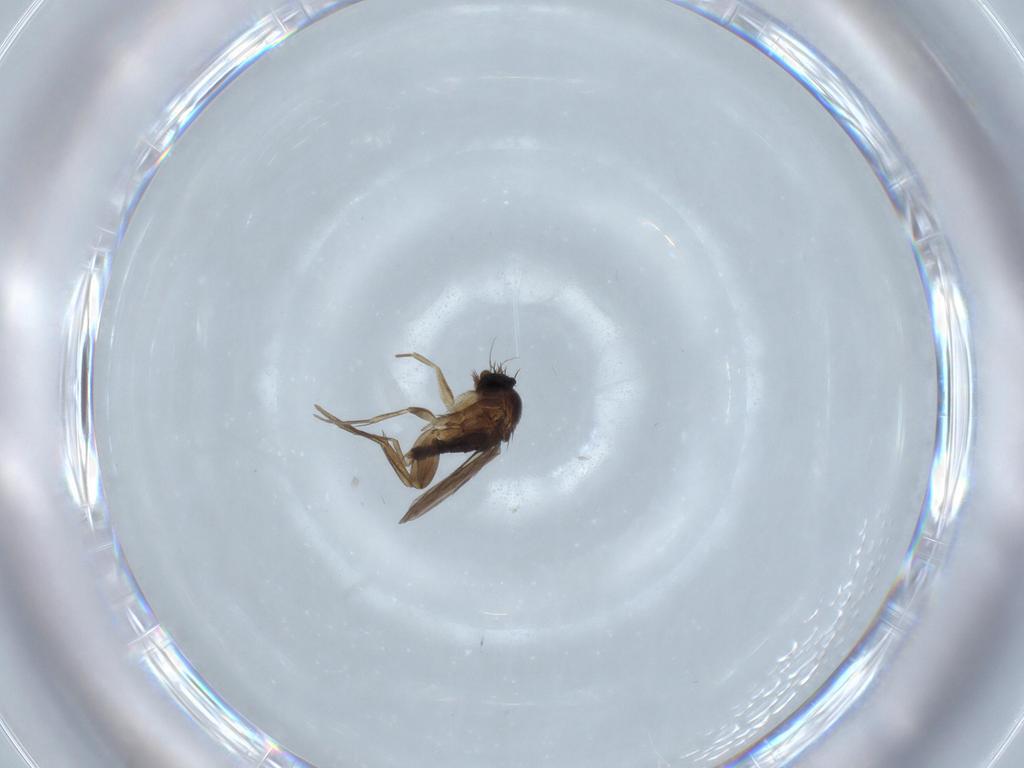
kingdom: Animalia
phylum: Arthropoda
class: Insecta
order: Diptera
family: Phoridae
